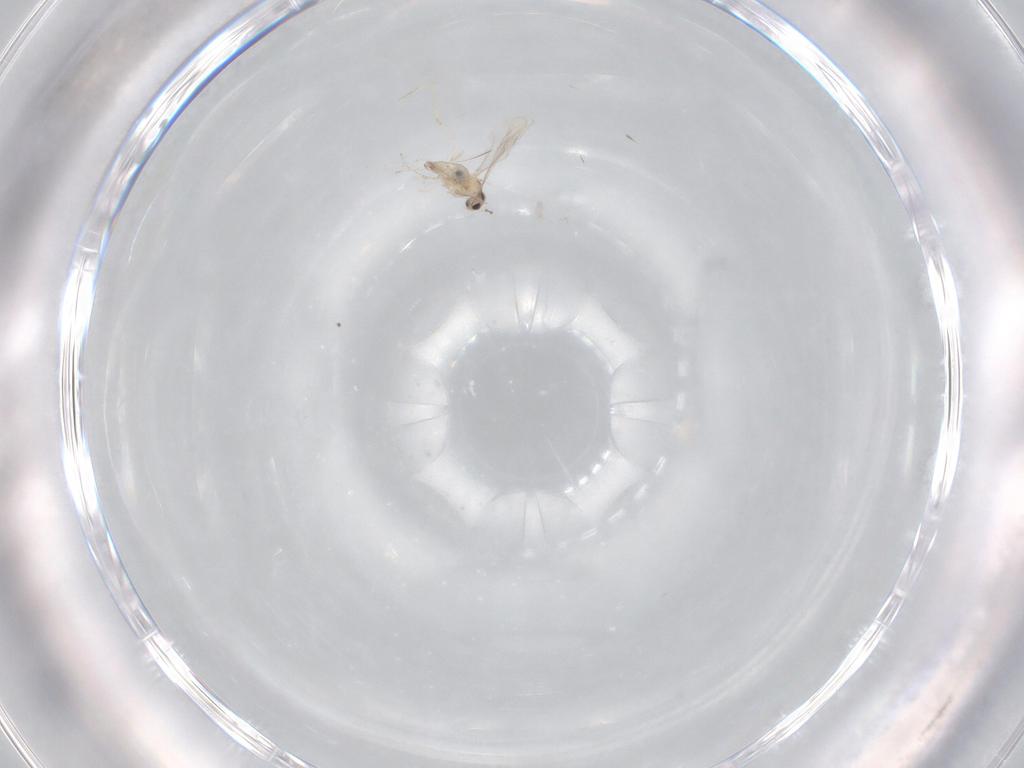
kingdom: Animalia
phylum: Arthropoda
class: Insecta
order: Diptera
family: Cecidomyiidae
